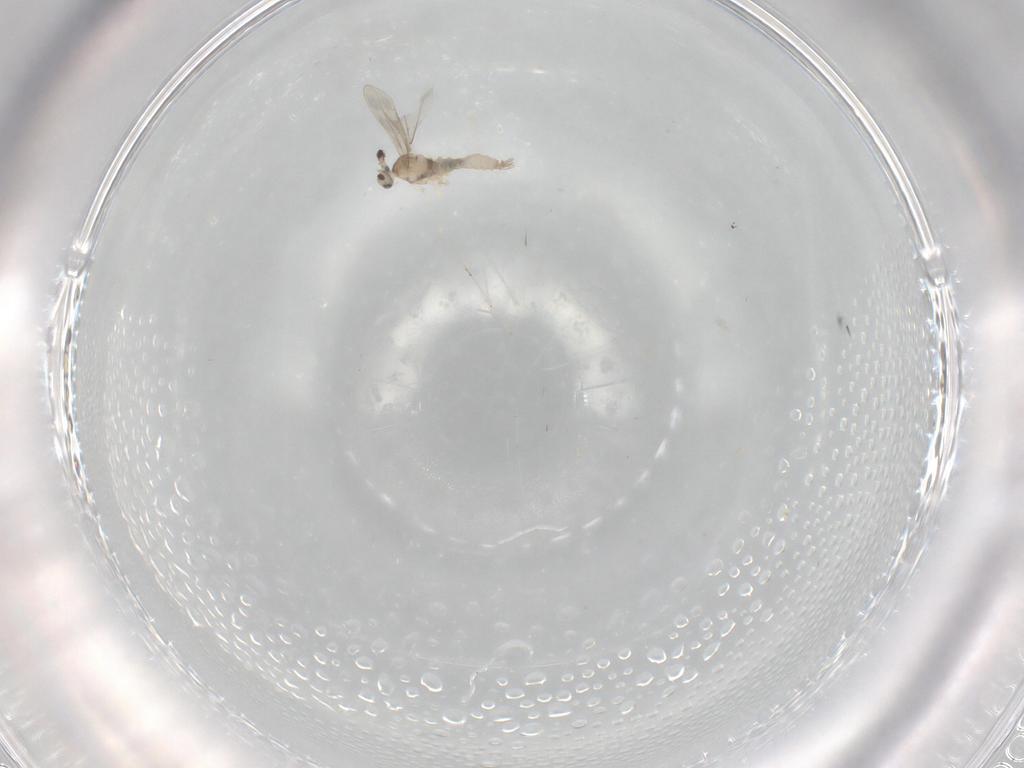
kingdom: Animalia
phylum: Arthropoda
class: Insecta
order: Diptera
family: Cecidomyiidae
